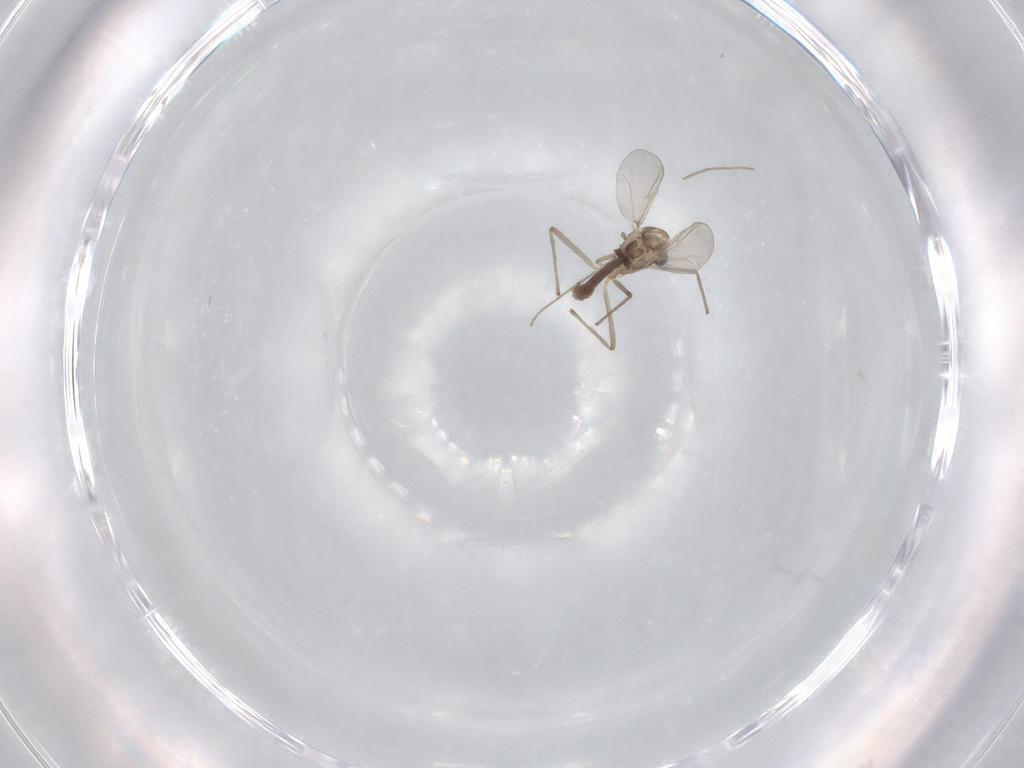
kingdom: Animalia
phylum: Arthropoda
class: Insecta
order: Diptera
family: Chironomidae
